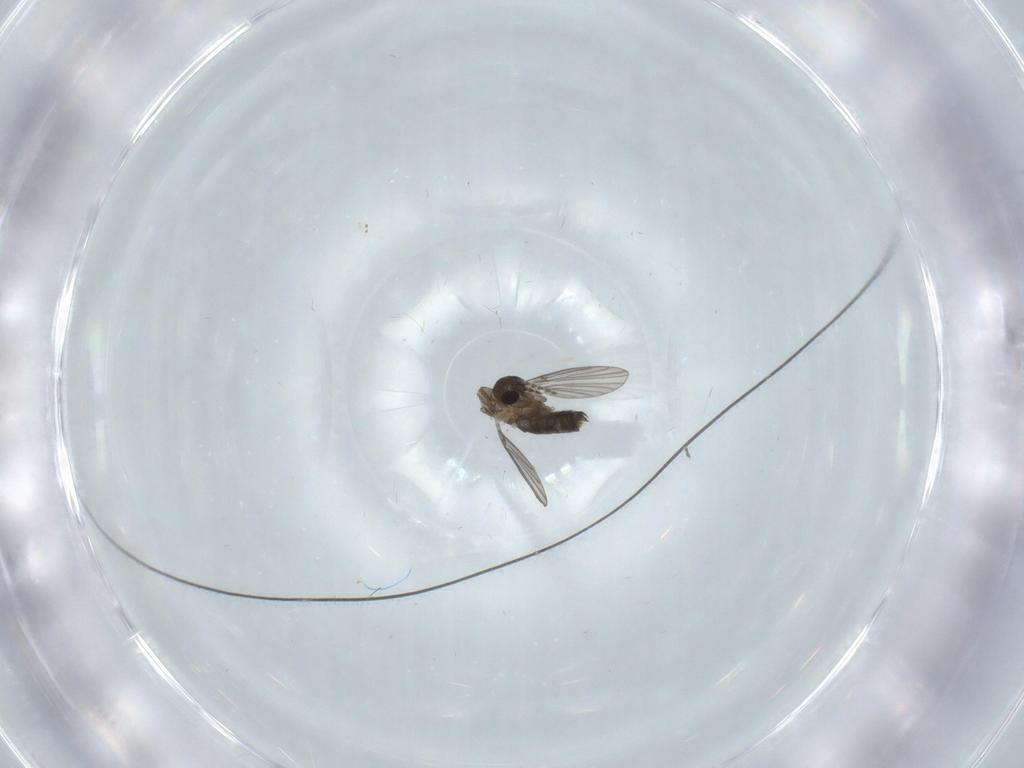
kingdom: Animalia
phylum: Arthropoda
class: Insecta
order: Diptera
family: Cecidomyiidae
